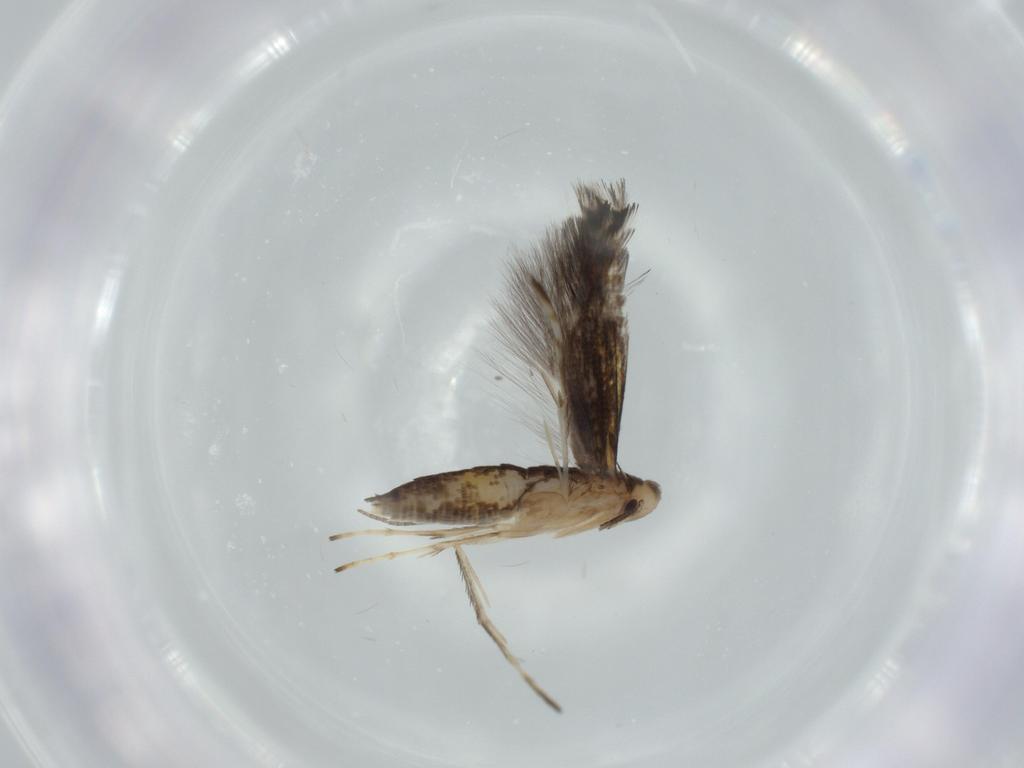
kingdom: Animalia
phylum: Arthropoda
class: Insecta
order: Lepidoptera
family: Gracillariidae
